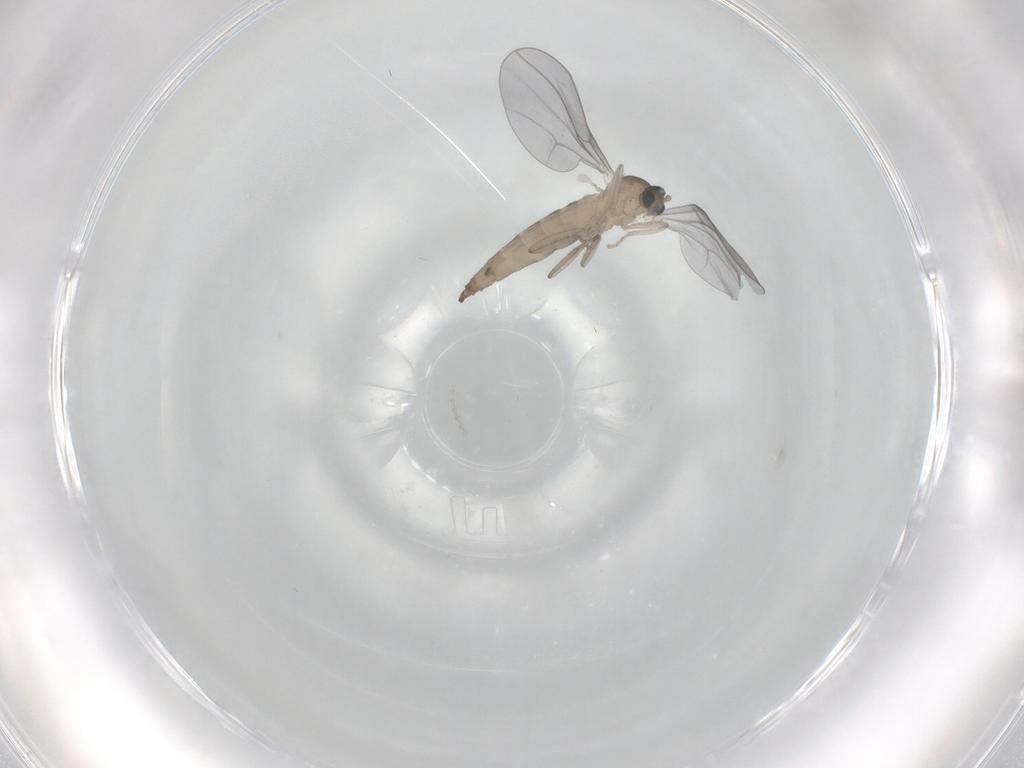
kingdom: Animalia
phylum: Arthropoda
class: Insecta
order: Diptera
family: Cecidomyiidae
